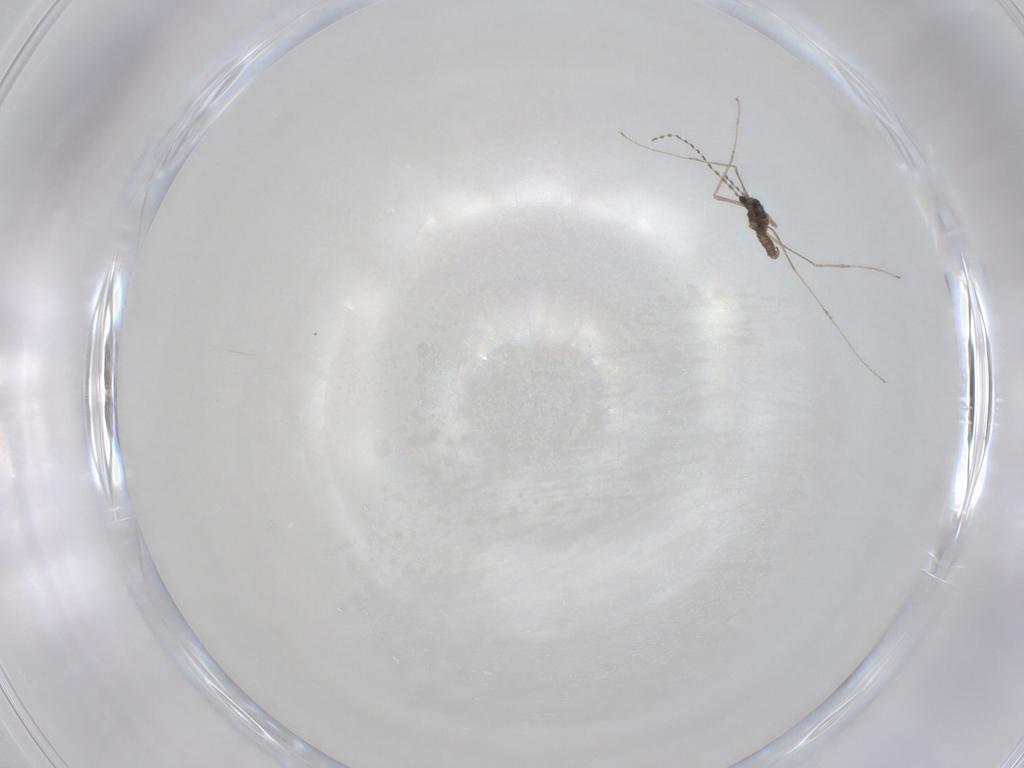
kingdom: Animalia
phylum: Arthropoda
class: Insecta
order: Diptera
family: Cecidomyiidae
